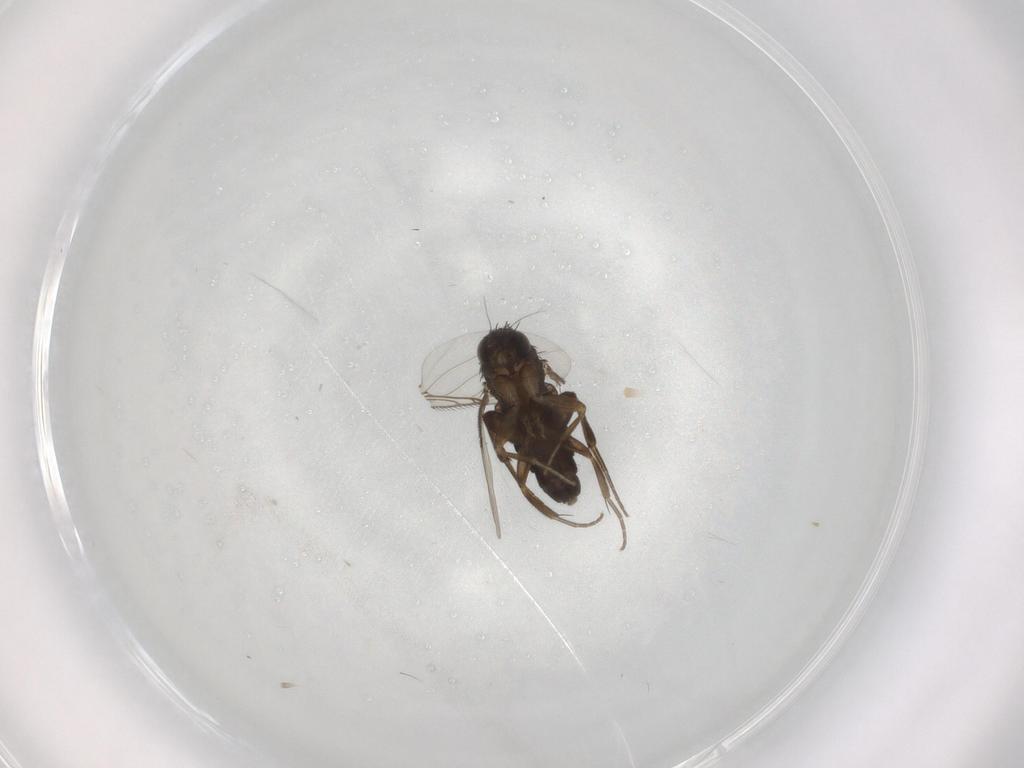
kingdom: Animalia
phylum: Arthropoda
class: Insecta
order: Diptera
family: Phoridae
